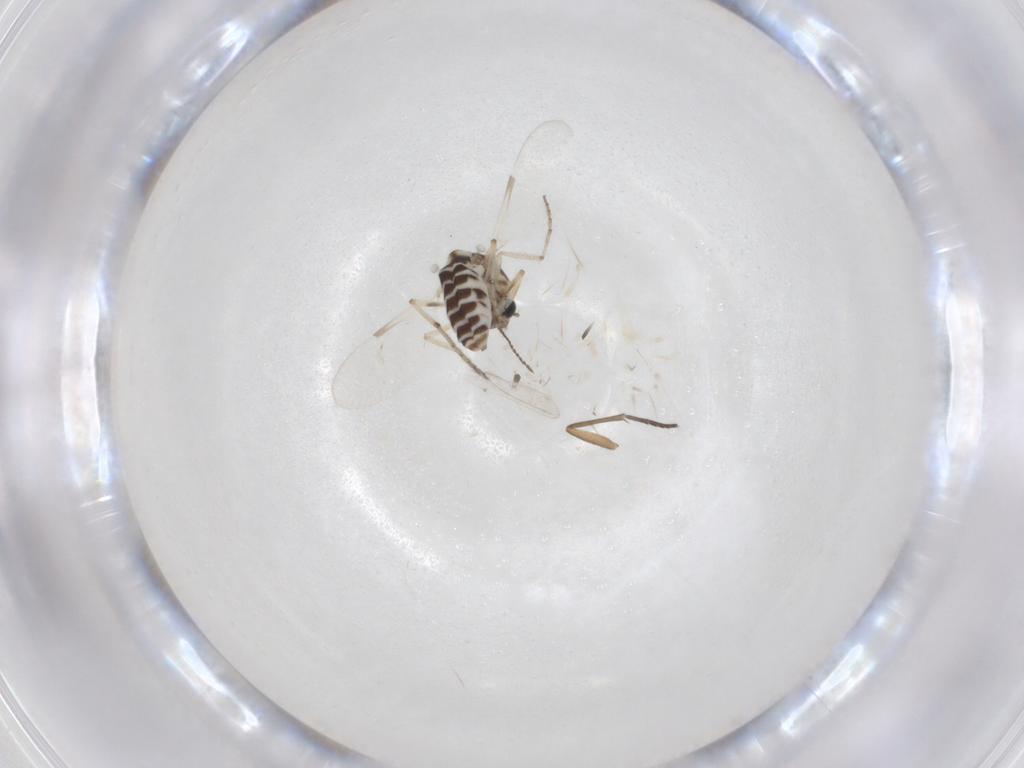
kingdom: Animalia
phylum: Arthropoda
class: Insecta
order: Diptera
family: Ceratopogonidae
